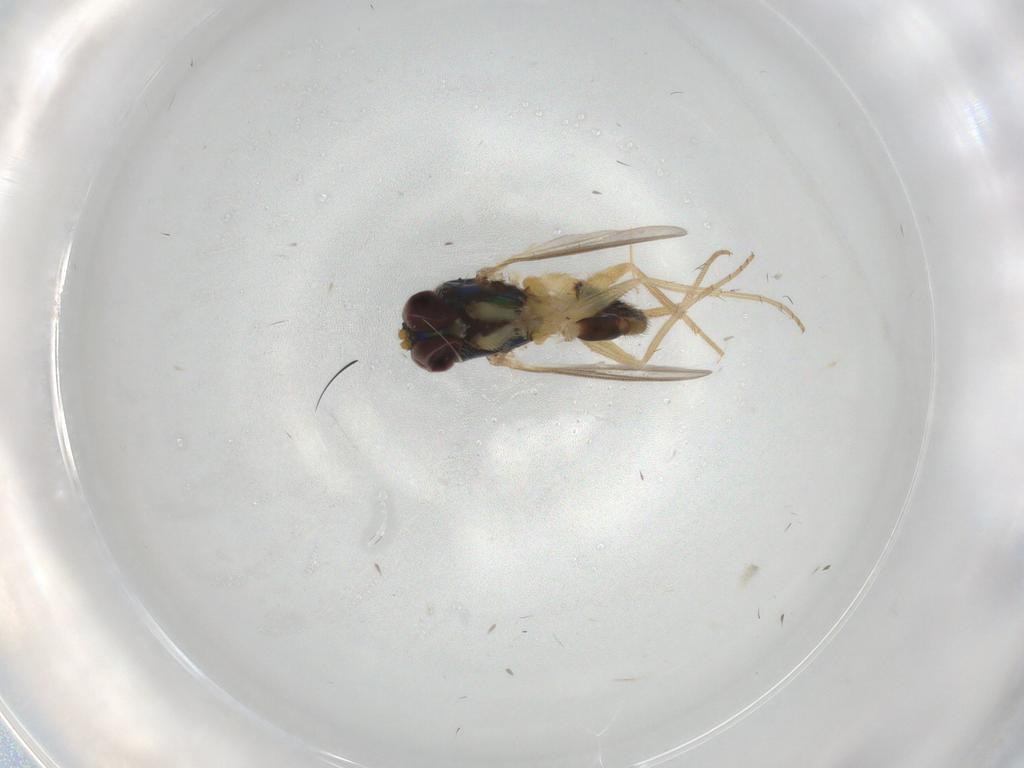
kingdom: Animalia
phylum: Arthropoda
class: Insecta
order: Diptera
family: Dolichopodidae
